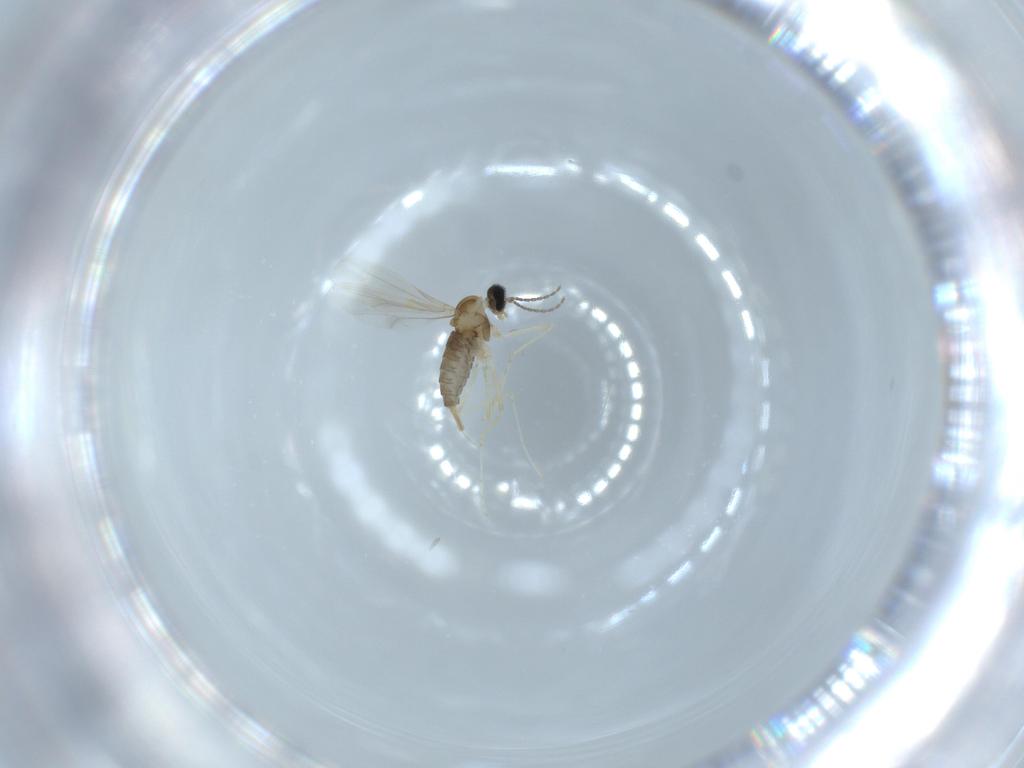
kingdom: Animalia
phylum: Arthropoda
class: Insecta
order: Diptera
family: Cecidomyiidae
